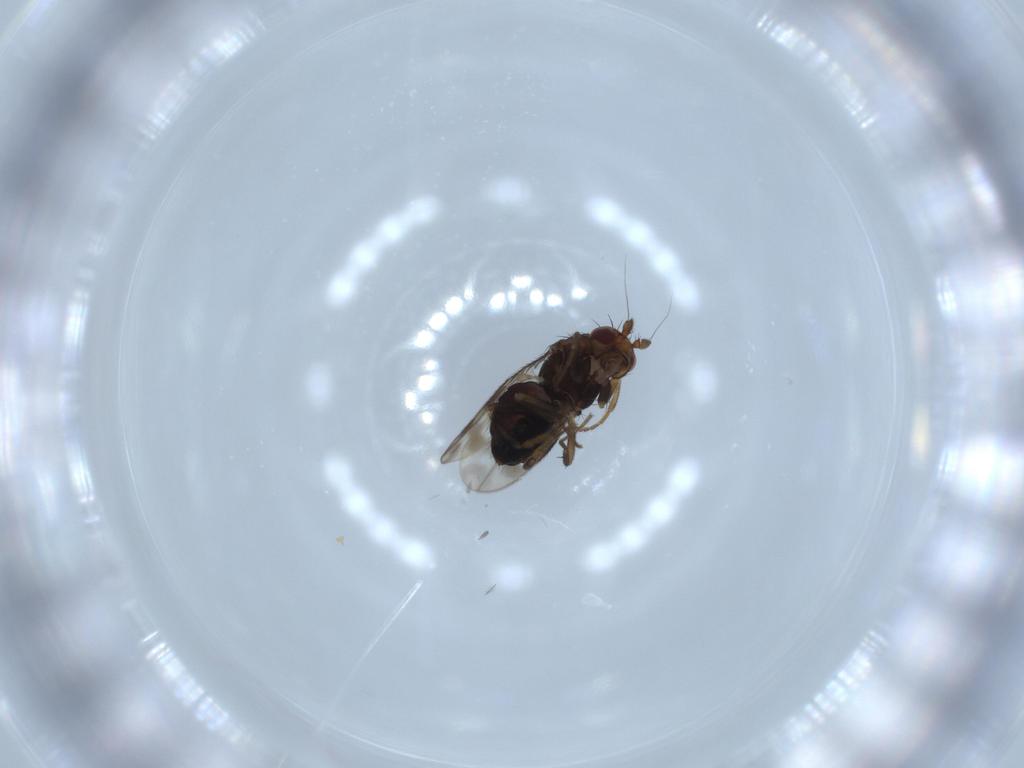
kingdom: Animalia
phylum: Arthropoda
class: Insecta
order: Diptera
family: Sphaeroceridae
